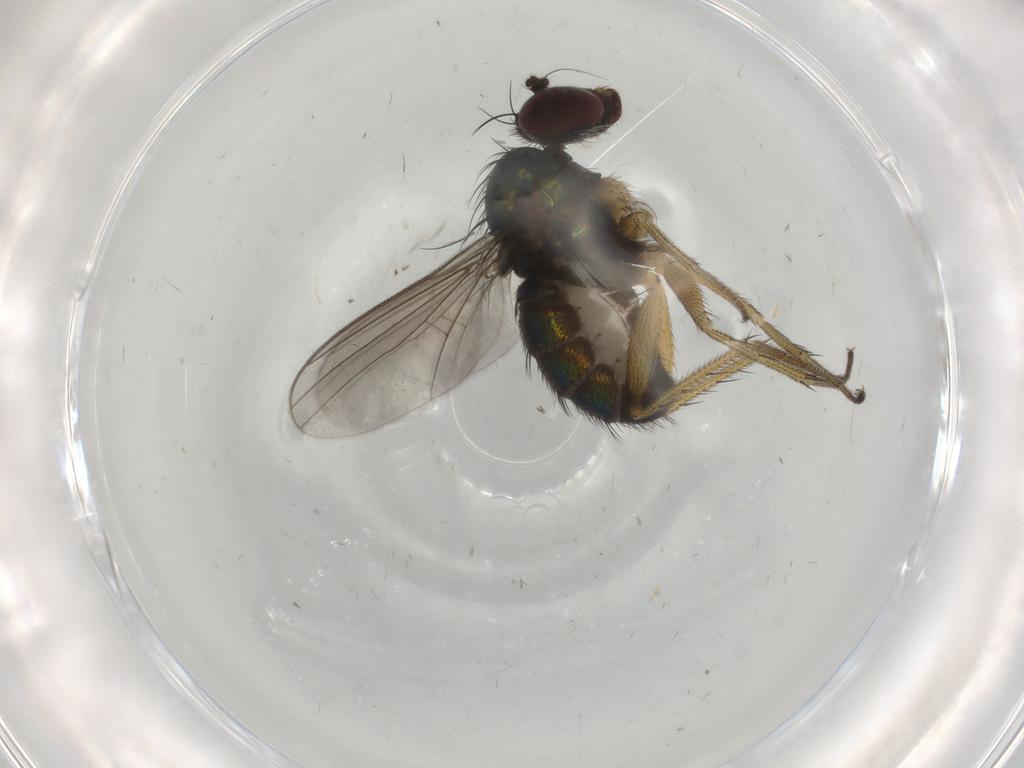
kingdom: Animalia
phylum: Arthropoda
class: Insecta
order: Diptera
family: Dolichopodidae
